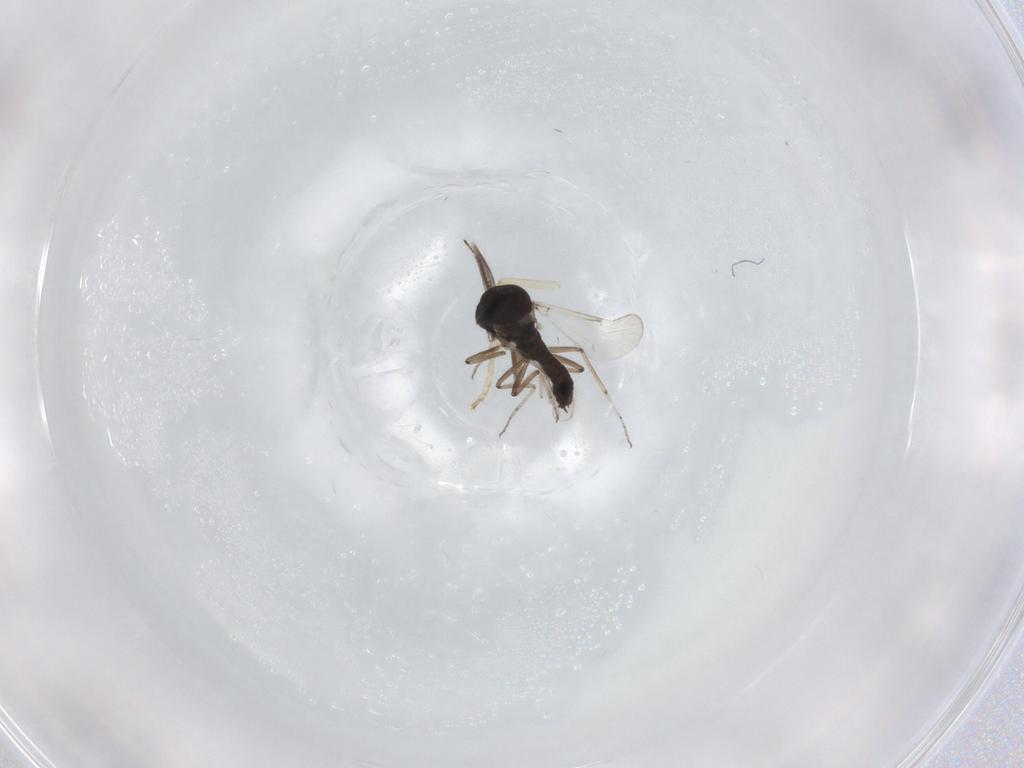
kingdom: Animalia
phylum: Arthropoda
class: Insecta
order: Diptera
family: Ceratopogonidae
